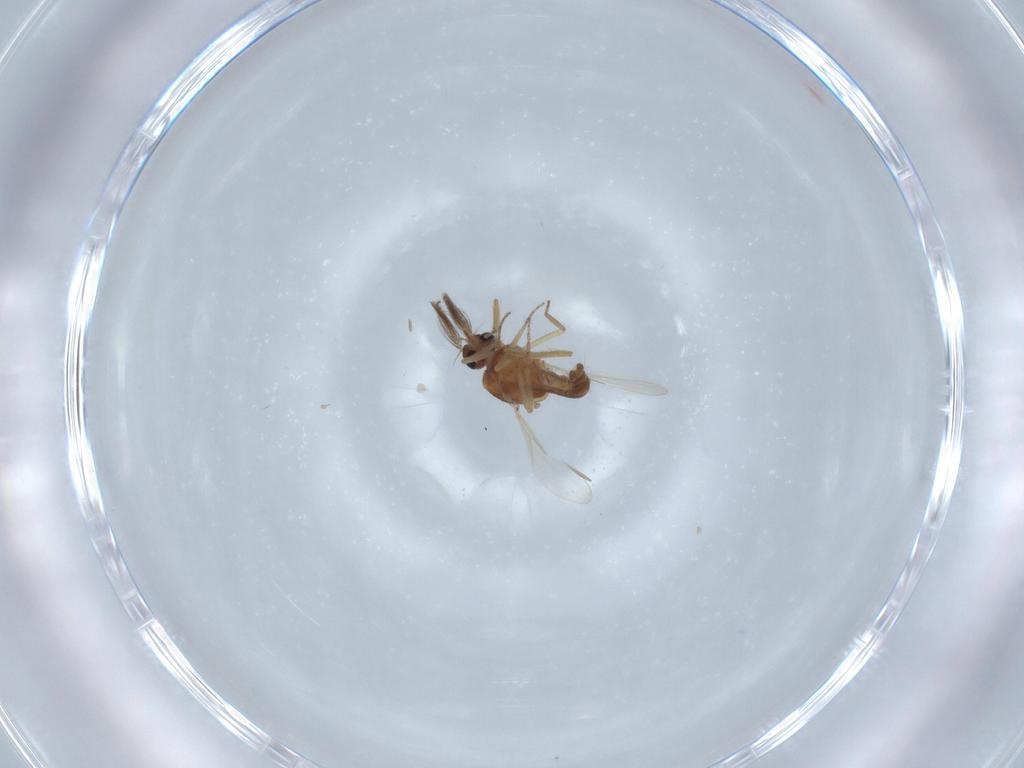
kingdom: Animalia
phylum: Arthropoda
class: Insecta
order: Diptera
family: Ceratopogonidae
